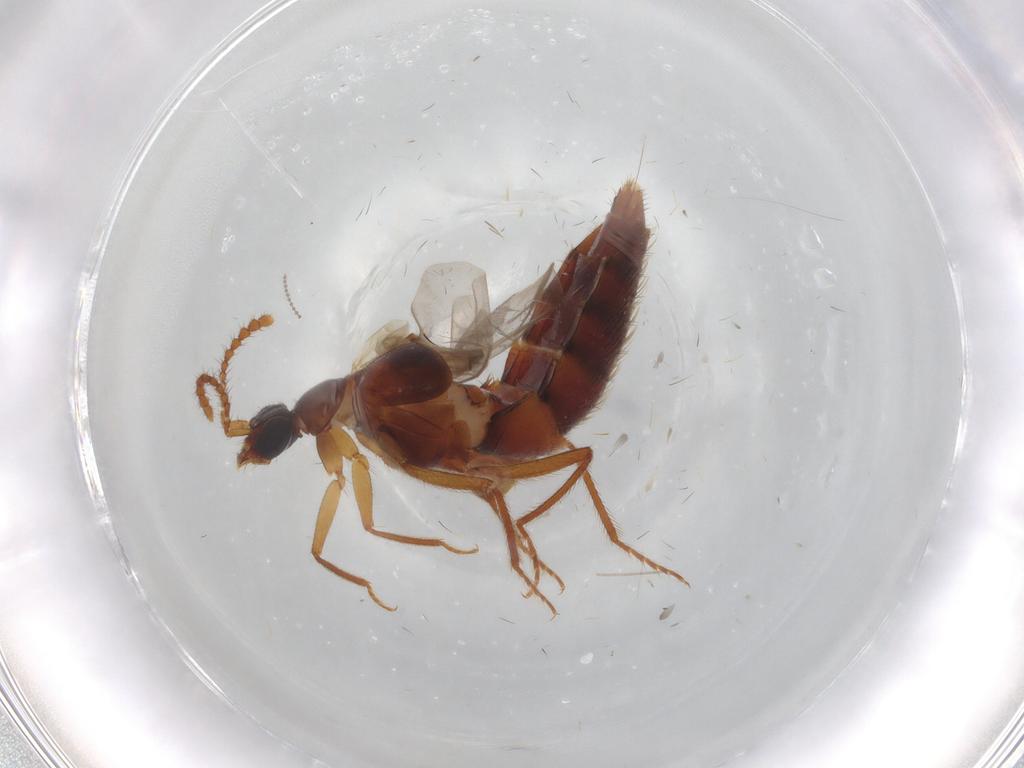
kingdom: Animalia
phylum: Arthropoda
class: Insecta
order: Coleoptera
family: Staphylinidae
